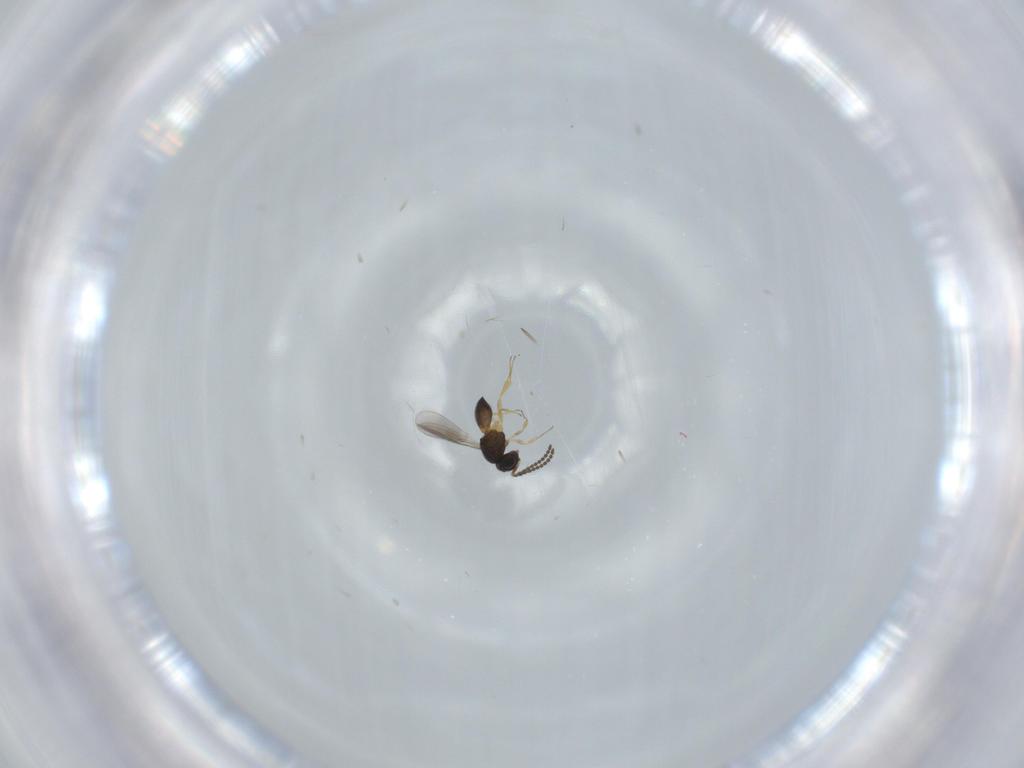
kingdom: Animalia
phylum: Arthropoda
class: Insecta
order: Hymenoptera
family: Scelionidae
